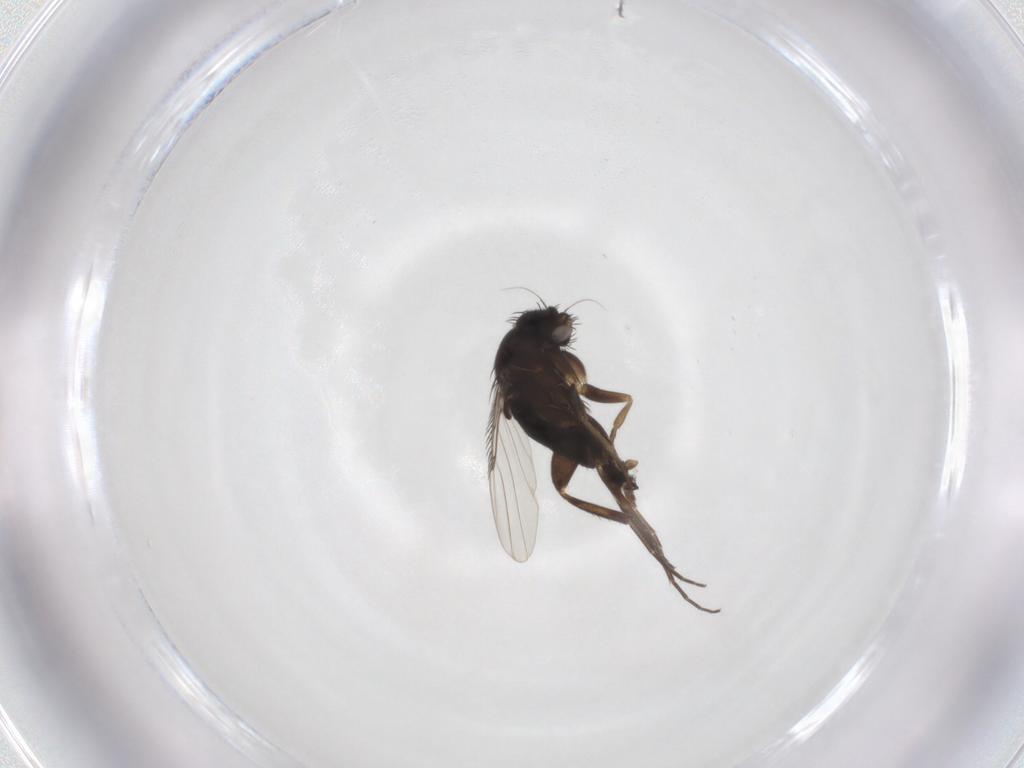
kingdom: Animalia
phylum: Arthropoda
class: Insecta
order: Diptera
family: Phoridae
